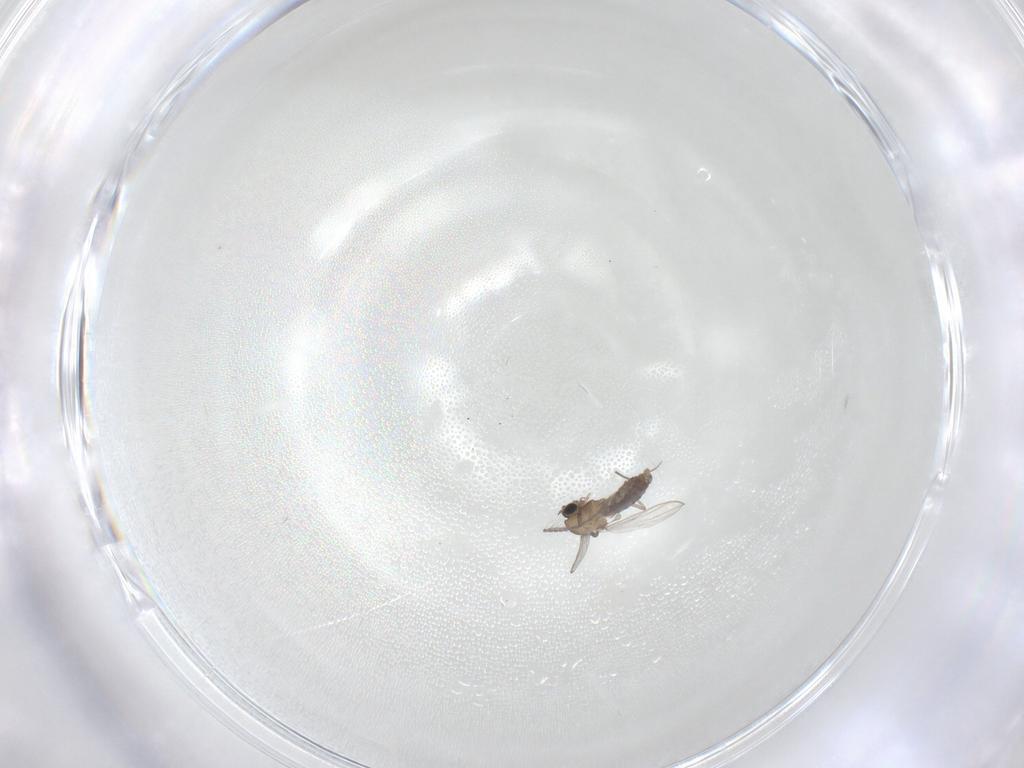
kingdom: Animalia
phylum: Arthropoda
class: Insecta
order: Diptera
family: Chironomidae
